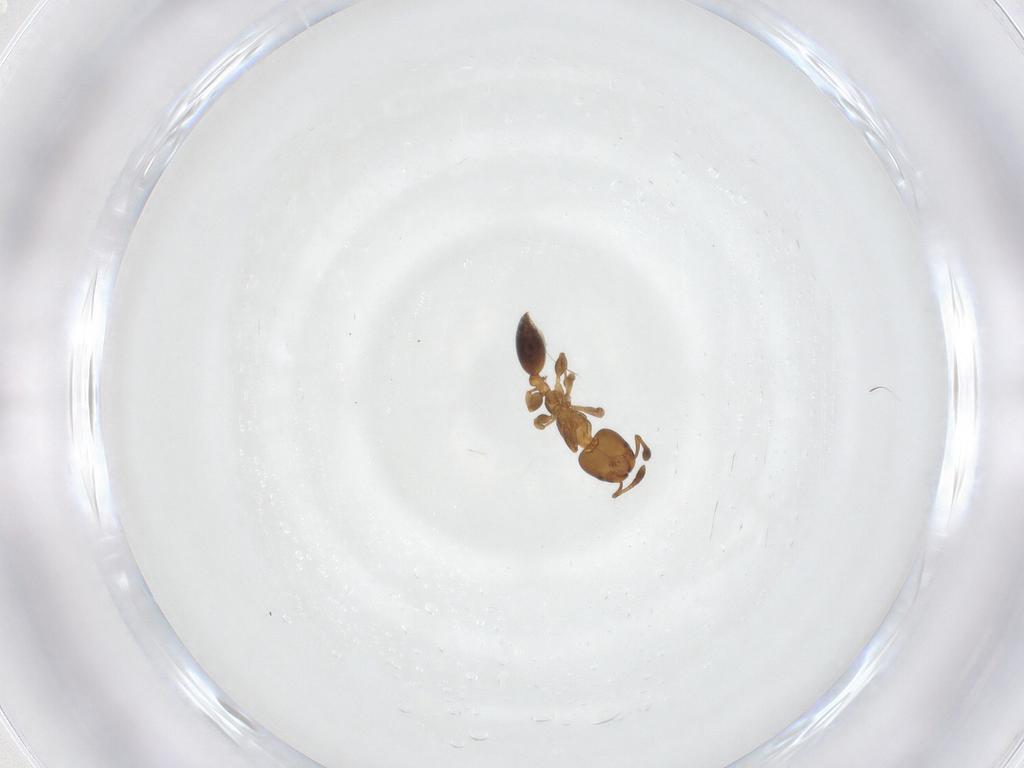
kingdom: Animalia
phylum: Arthropoda
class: Insecta
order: Hymenoptera
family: Formicidae
